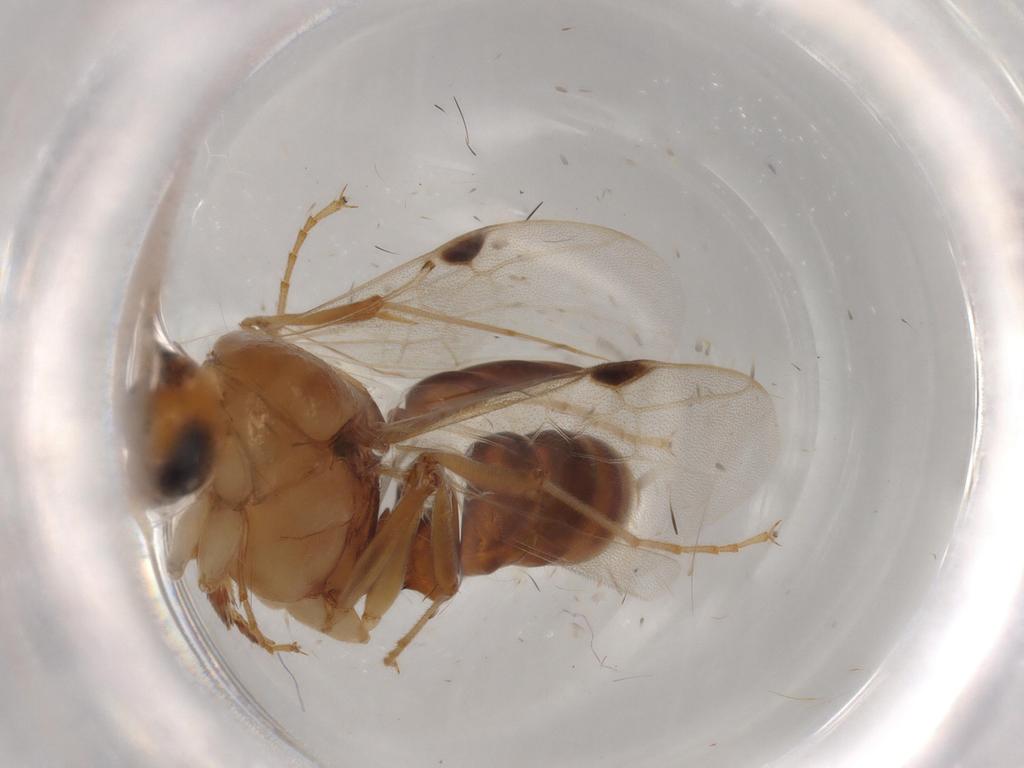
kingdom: Animalia
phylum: Arthropoda
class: Insecta
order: Hymenoptera
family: Formicidae
